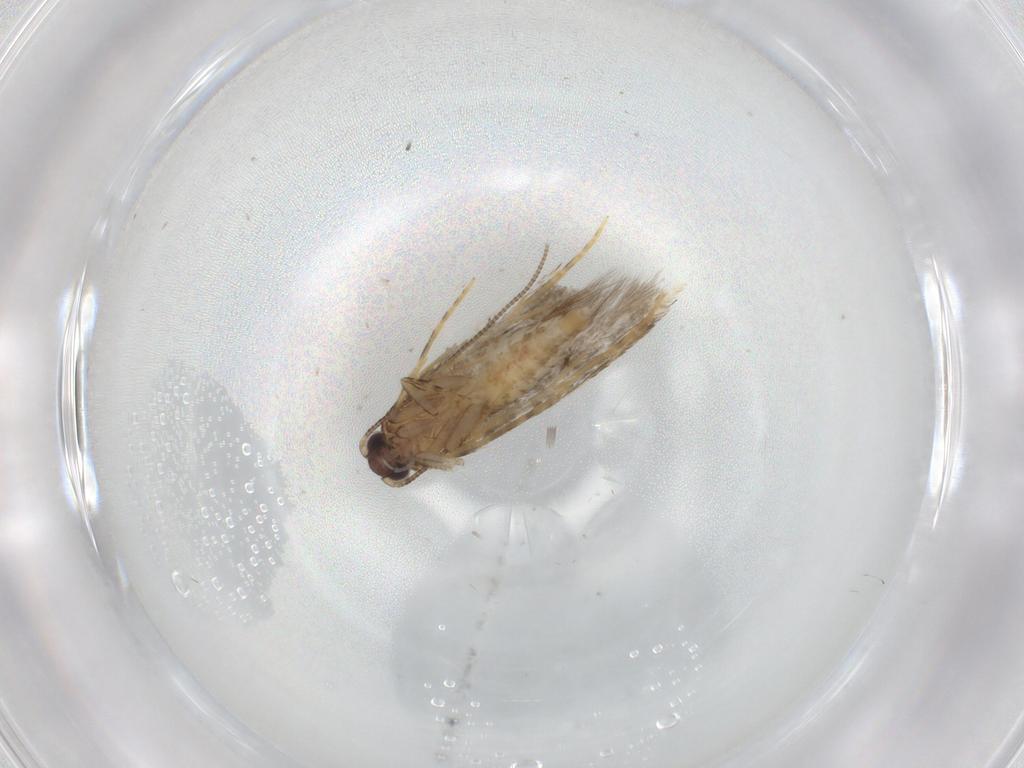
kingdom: Animalia
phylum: Arthropoda
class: Insecta
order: Lepidoptera
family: Tineidae
